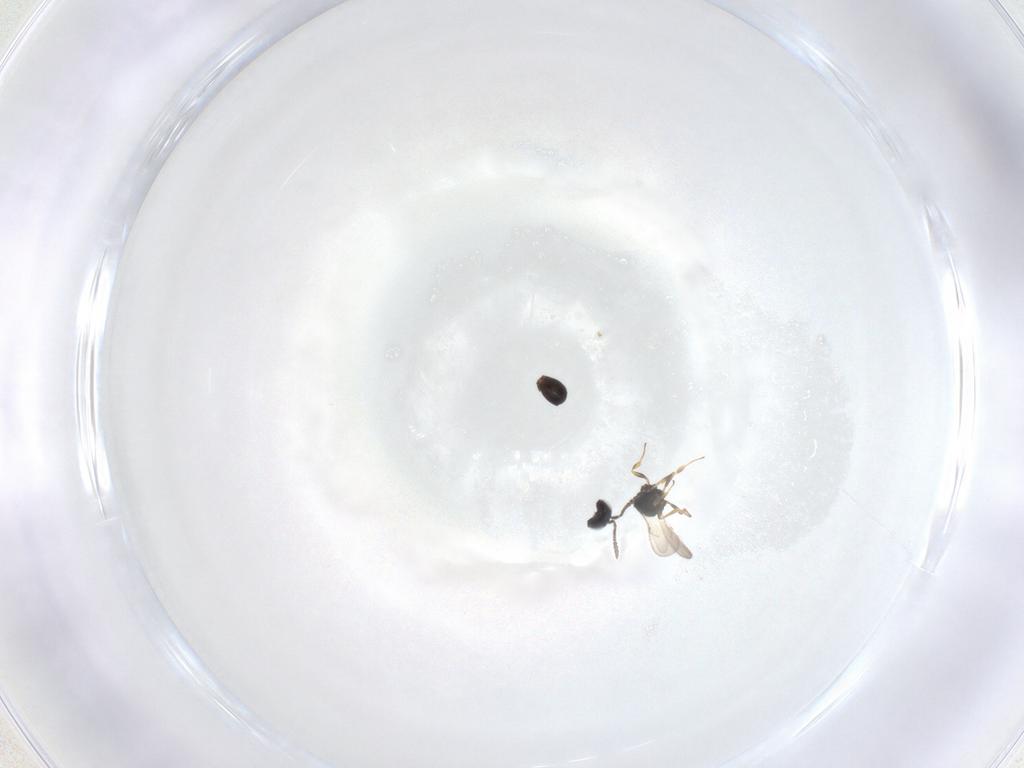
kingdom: Animalia
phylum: Arthropoda
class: Insecta
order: Hymenoptera
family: Scelionidae
